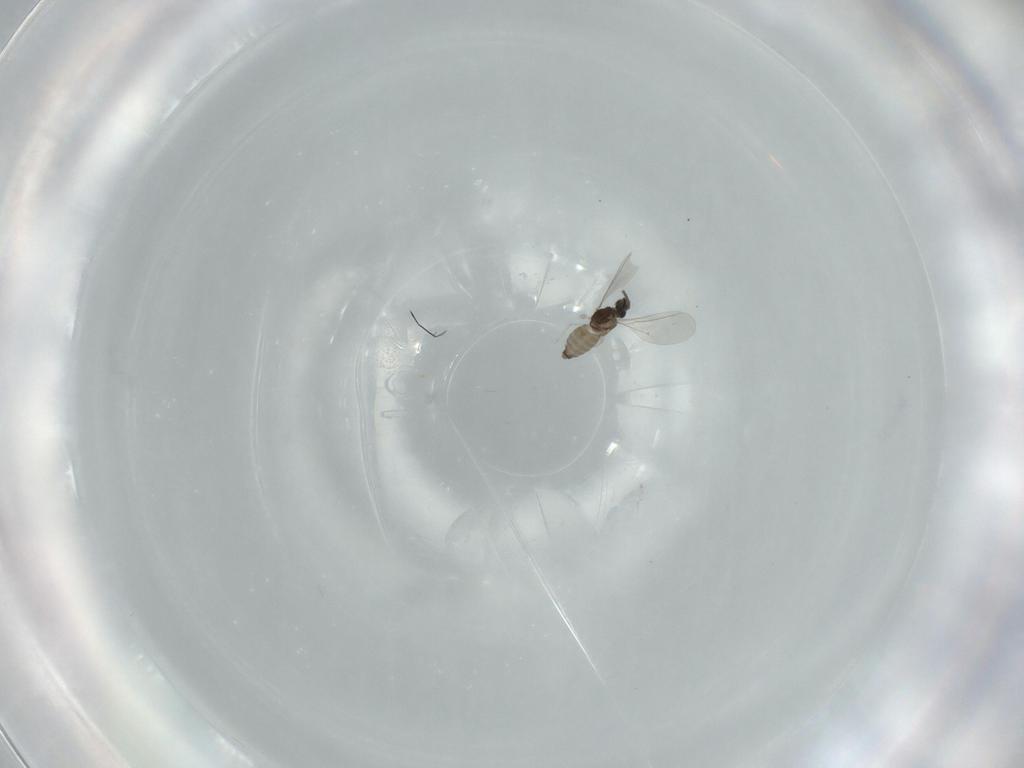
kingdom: Animalia
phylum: Arthropoda
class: Insecta
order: Diptera
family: Cecidomyiidae
